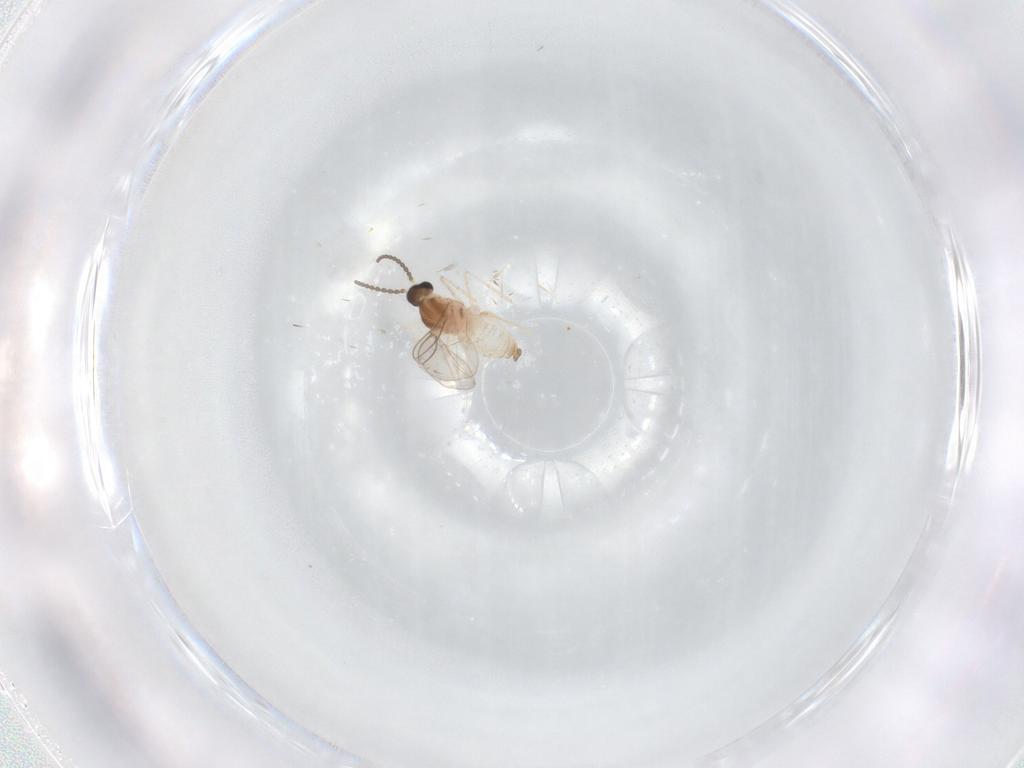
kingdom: Animalia
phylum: Arthropoda
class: Insecta
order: Diptera
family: Cecidomyiidae
